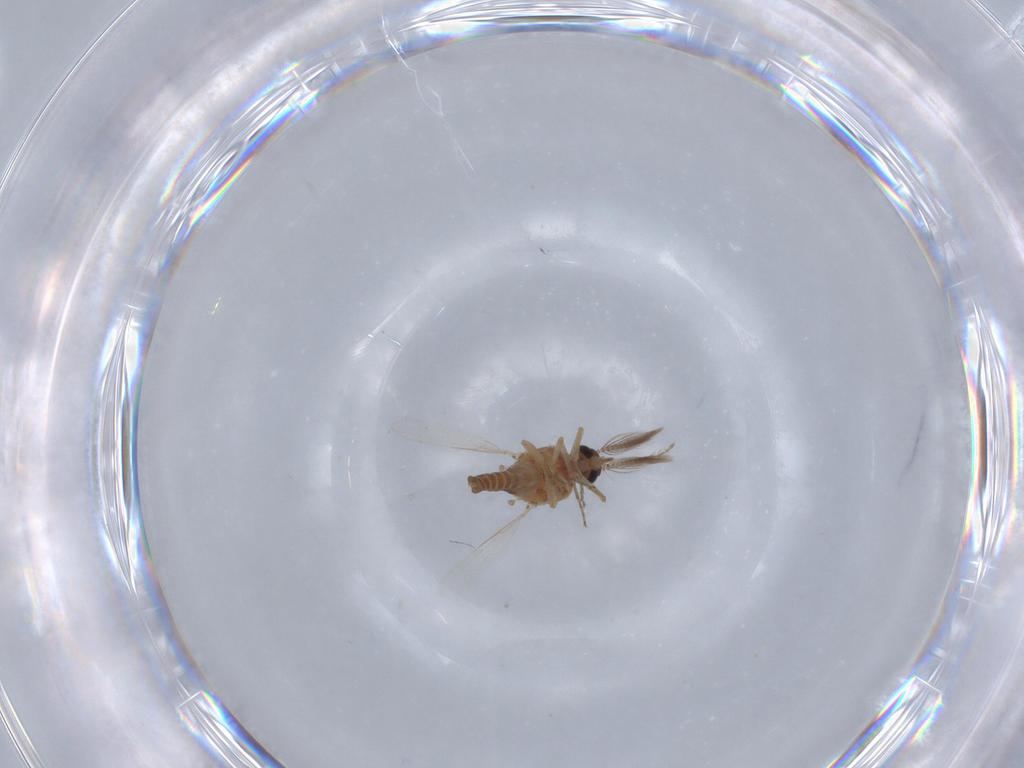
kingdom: Animalia
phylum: Arthropoda
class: Insecta
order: Diptera
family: Ceratopogonidae
